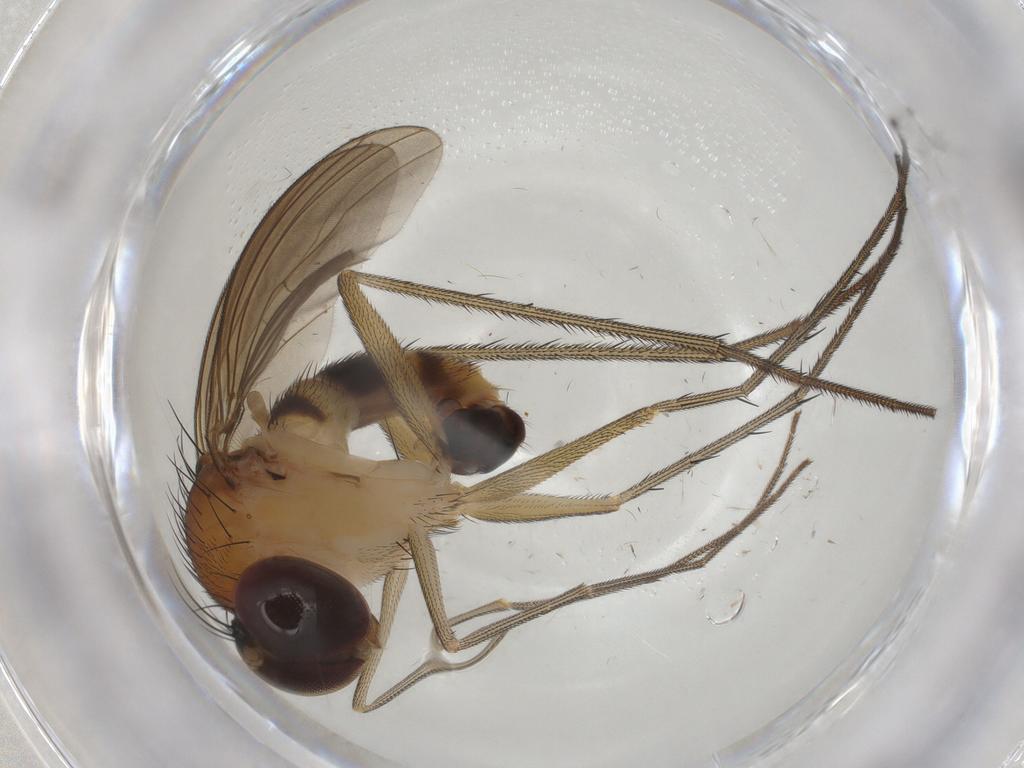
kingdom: Animalia
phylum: Arthropoda
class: Insecta
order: Diptera
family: Dolichopodidae
